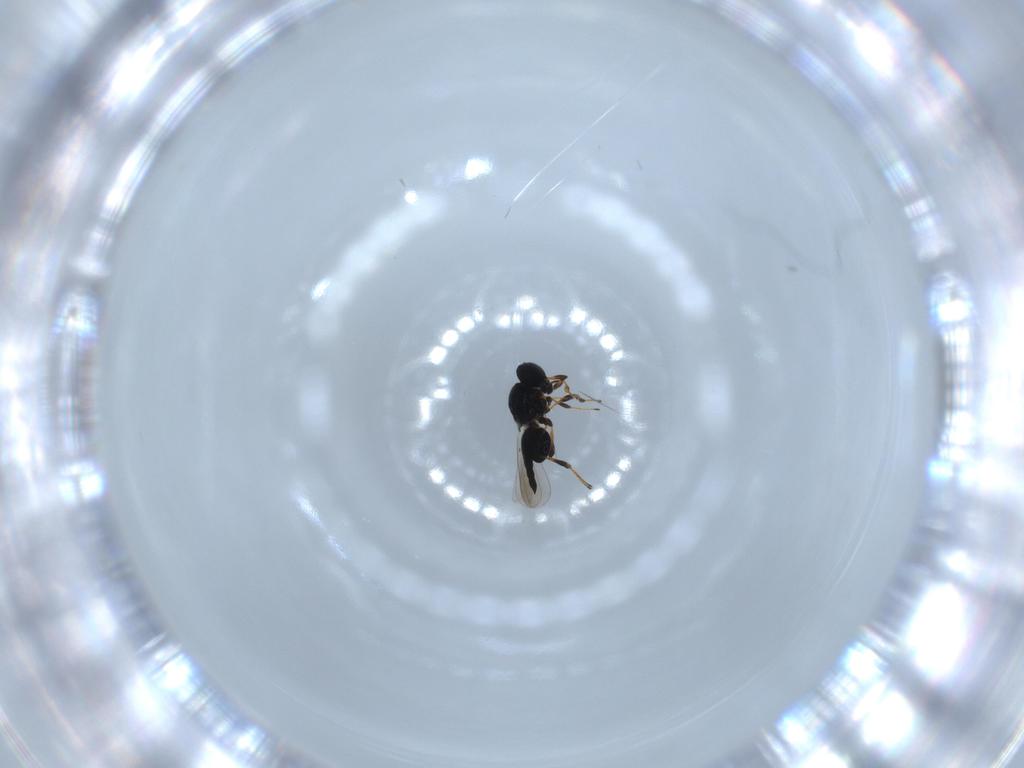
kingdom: Animalia
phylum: Arthropoda
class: Insecta
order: Hymenoptera
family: Platygastridae
